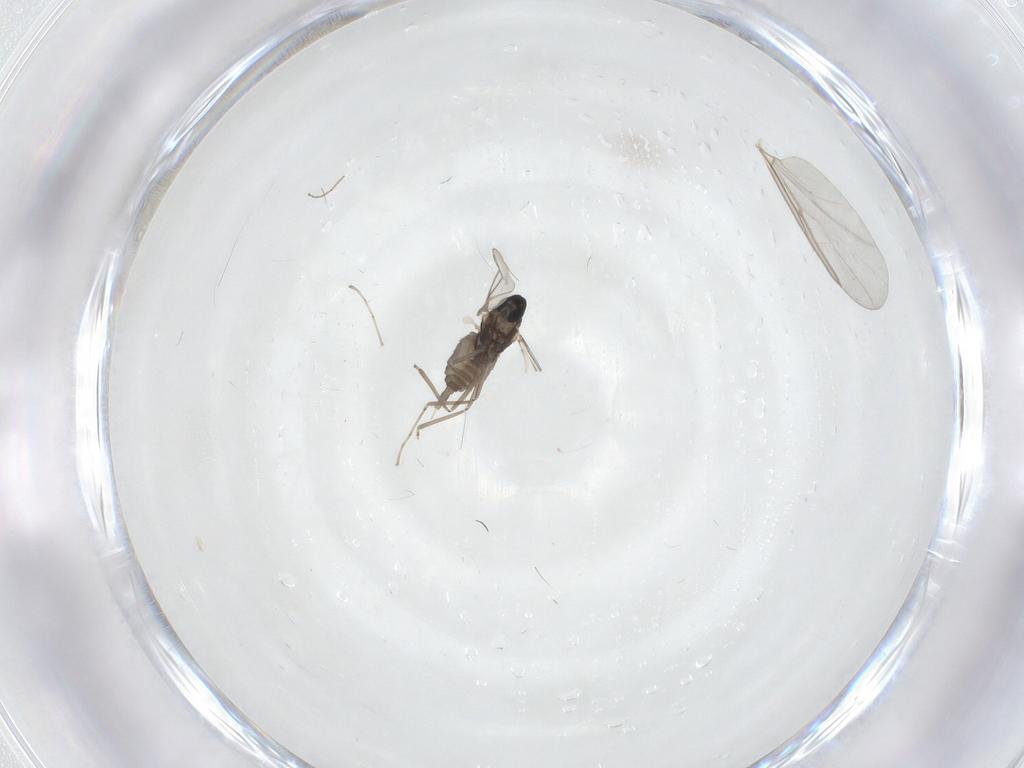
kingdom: Animalia
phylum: Arthropoda
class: Insecta
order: Diptera
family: Cecidomyiidae
